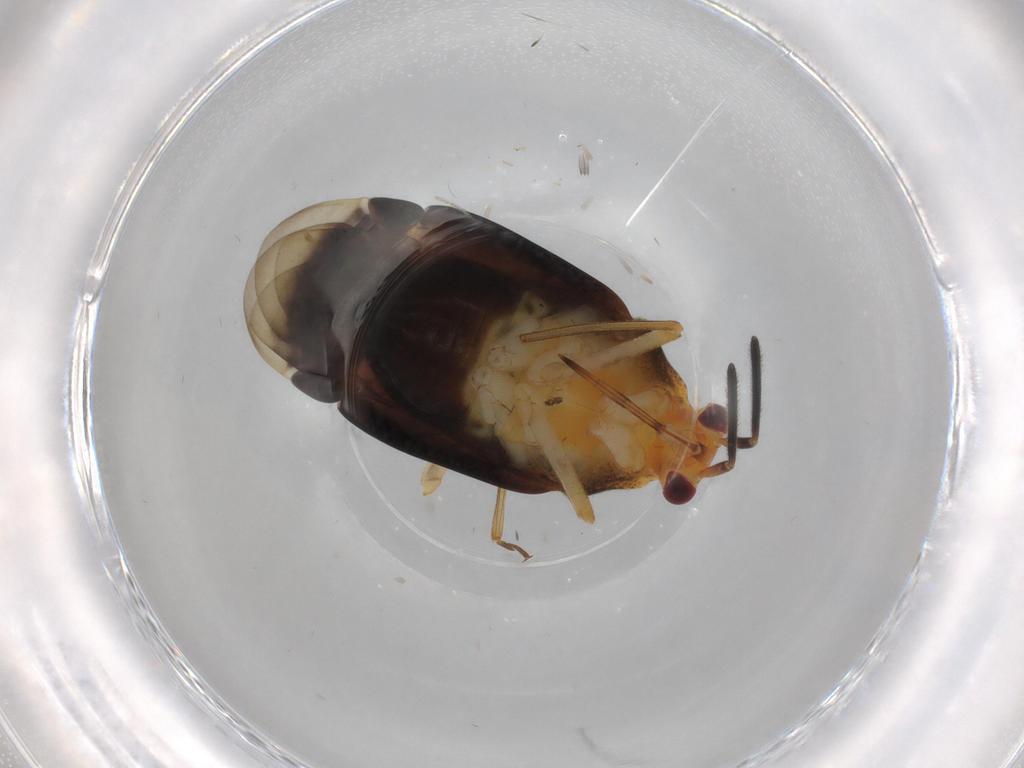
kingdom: Animalia
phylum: Arthropoda
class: Insecta
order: Hemiptera
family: Miridae
